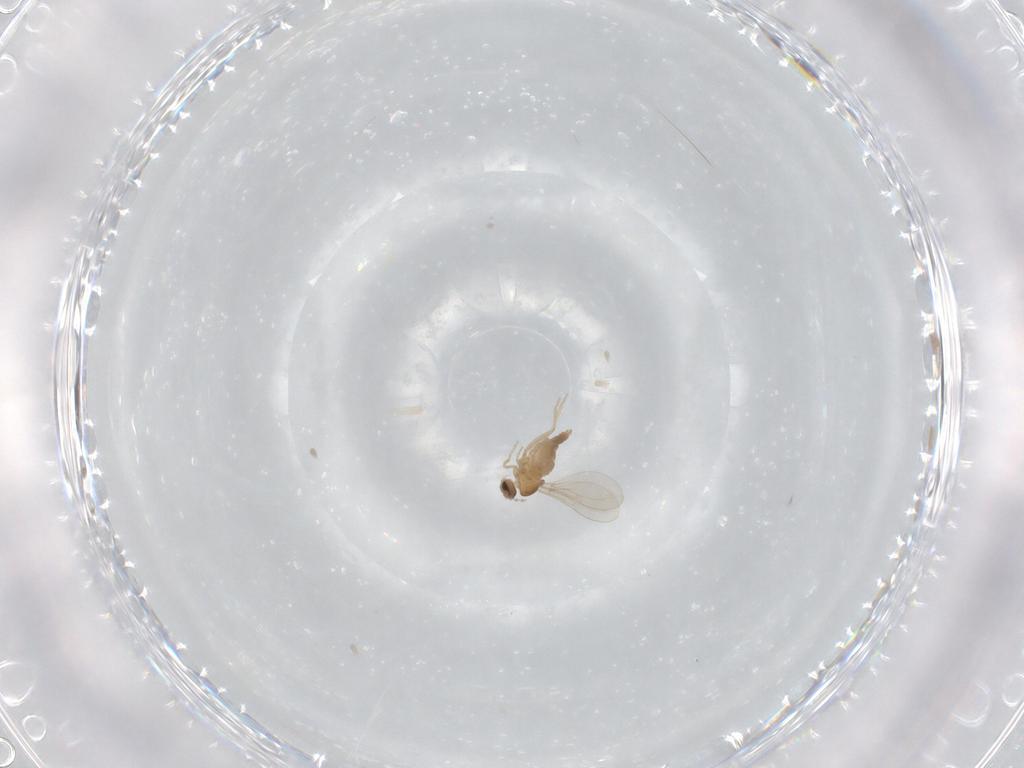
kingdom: Animalia
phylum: Arthropoda
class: Insecta
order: Diptera
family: Cecidomyiidae
